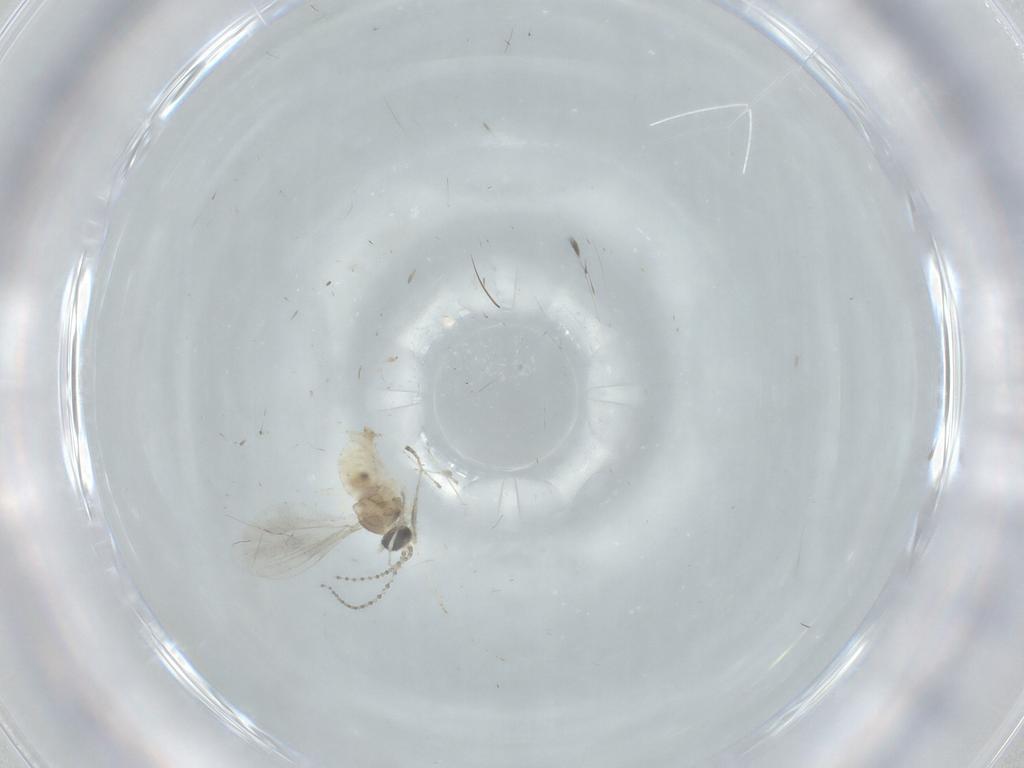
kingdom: Animalia
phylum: Arthropoda
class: Insecta
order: Diptera
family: Cecidomyiidae
